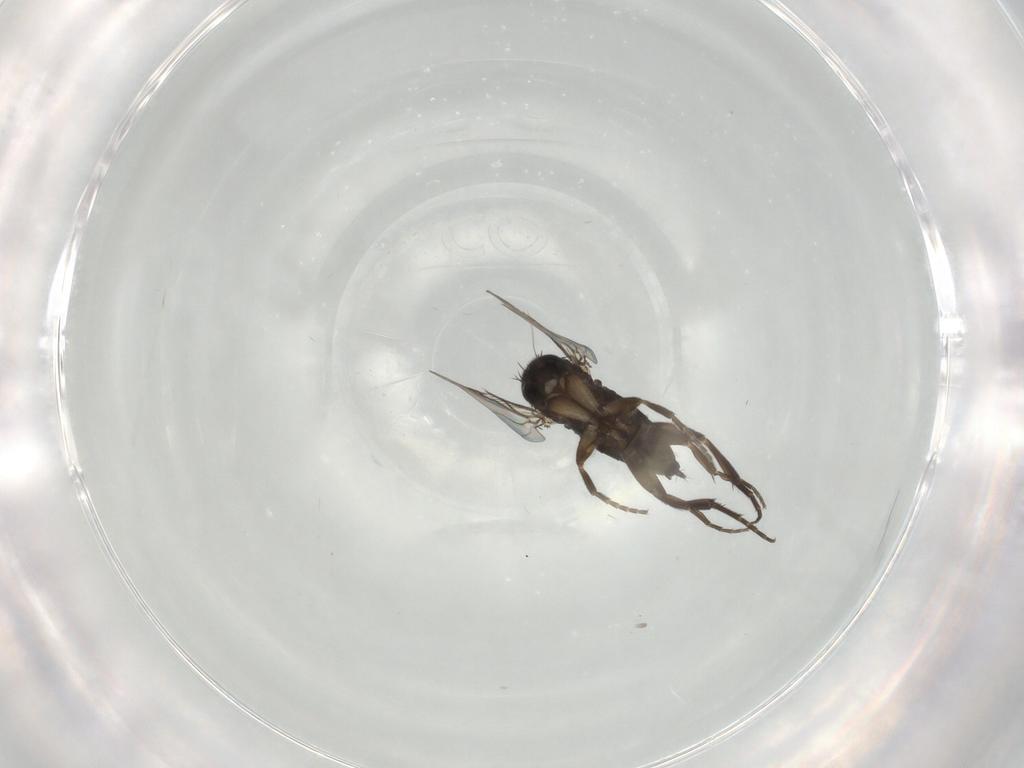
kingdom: Animalia
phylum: Arthropoda
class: Insecta
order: Diptera
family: Phoridae
